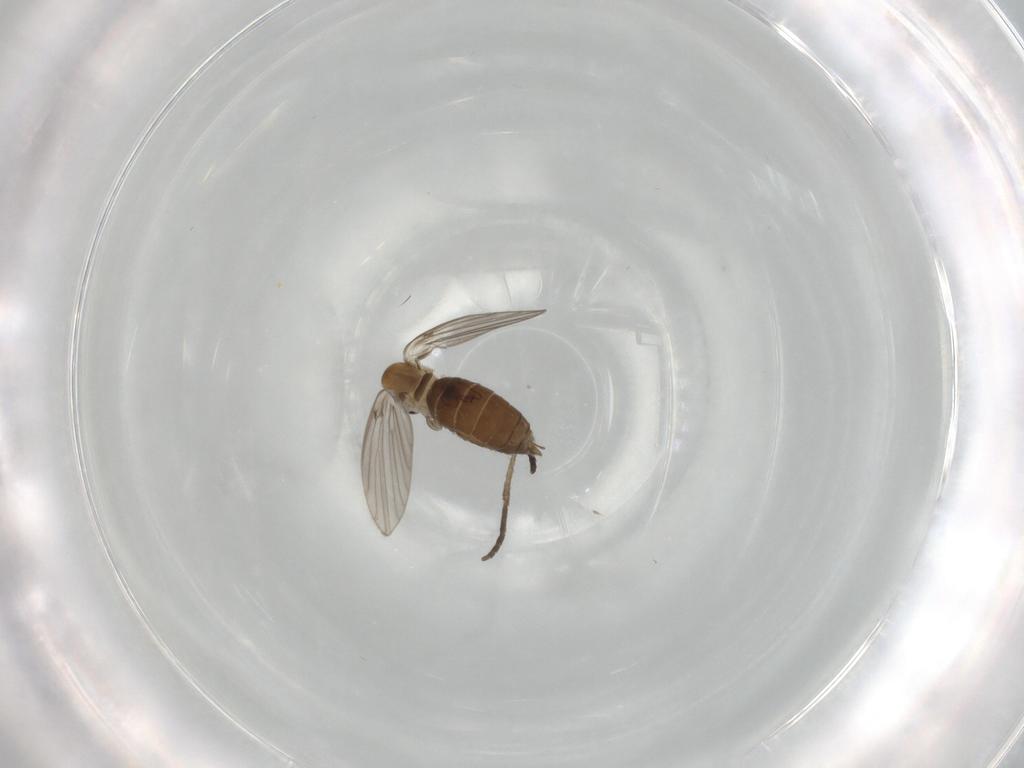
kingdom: Animalia
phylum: Arthropoda
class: Insecta
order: Diptera
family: Psychodidae
